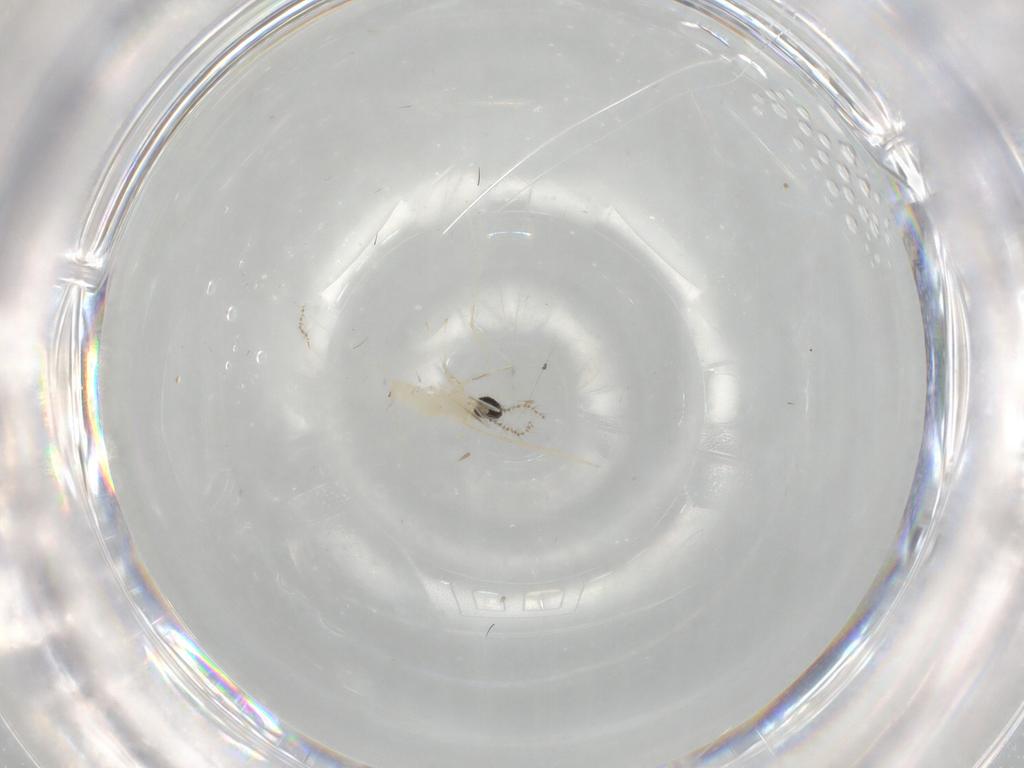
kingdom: Animalia
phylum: Arthropoda
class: Insecta
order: Diptera
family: Cecidomyiidae
